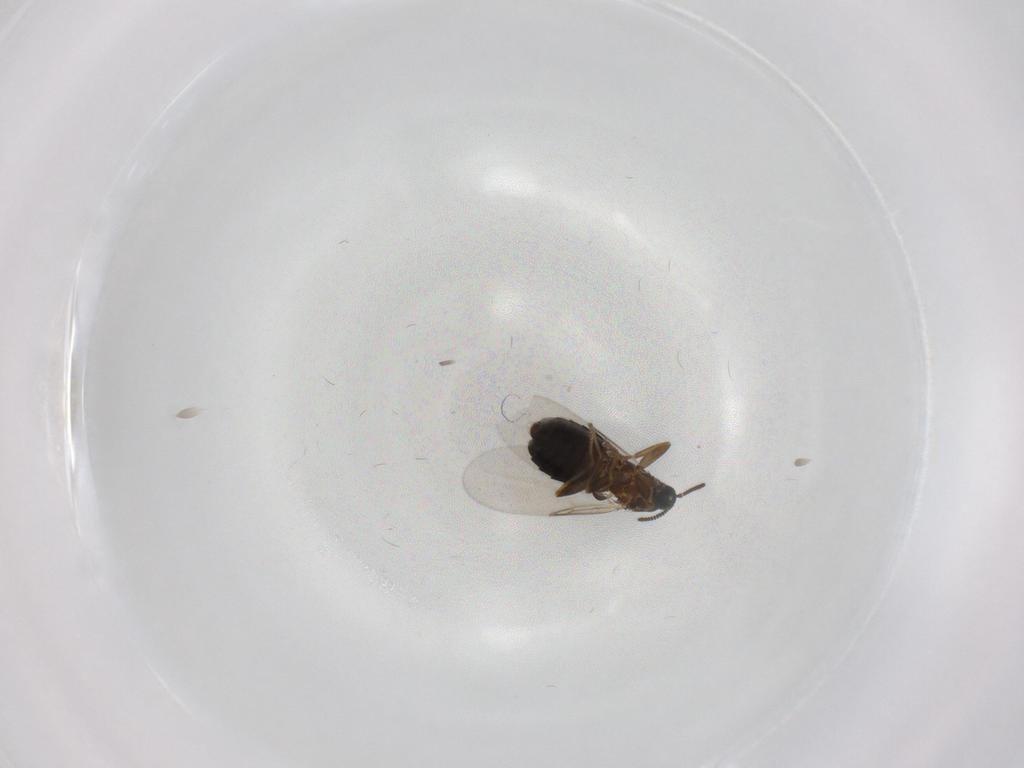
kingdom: Animalia
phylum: Arthropoda
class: Insecta
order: Diptera
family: Scatopsidae
